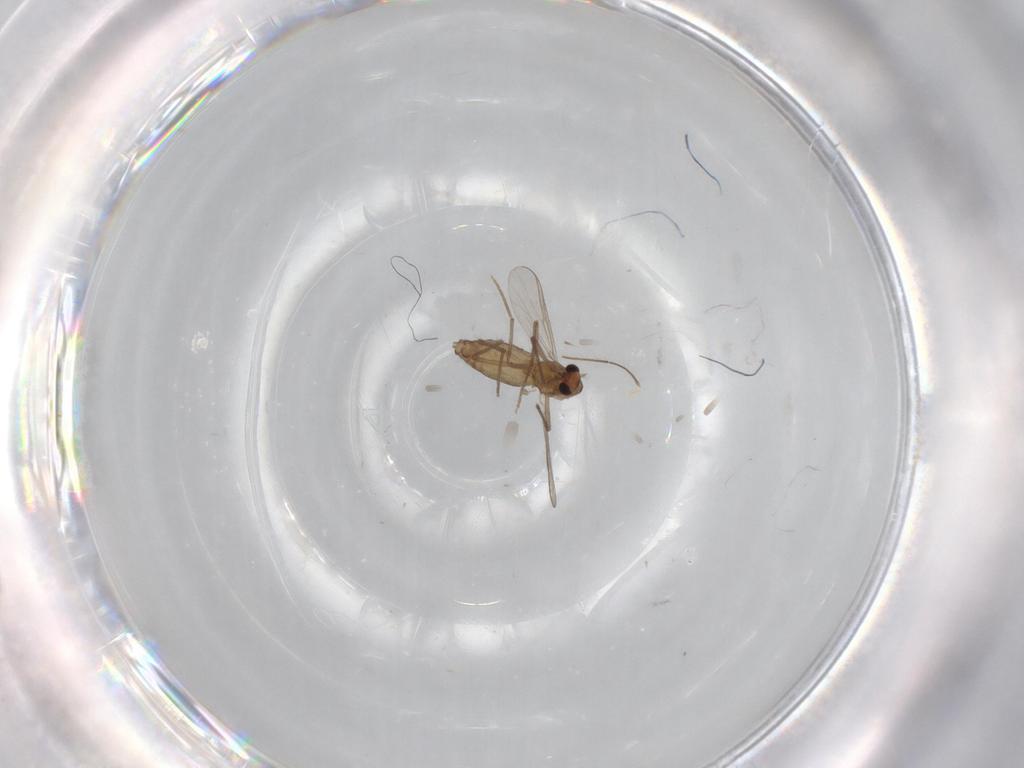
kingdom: Animalia
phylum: Arthropoda
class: Insecta
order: Diptera
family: Chironomidae
